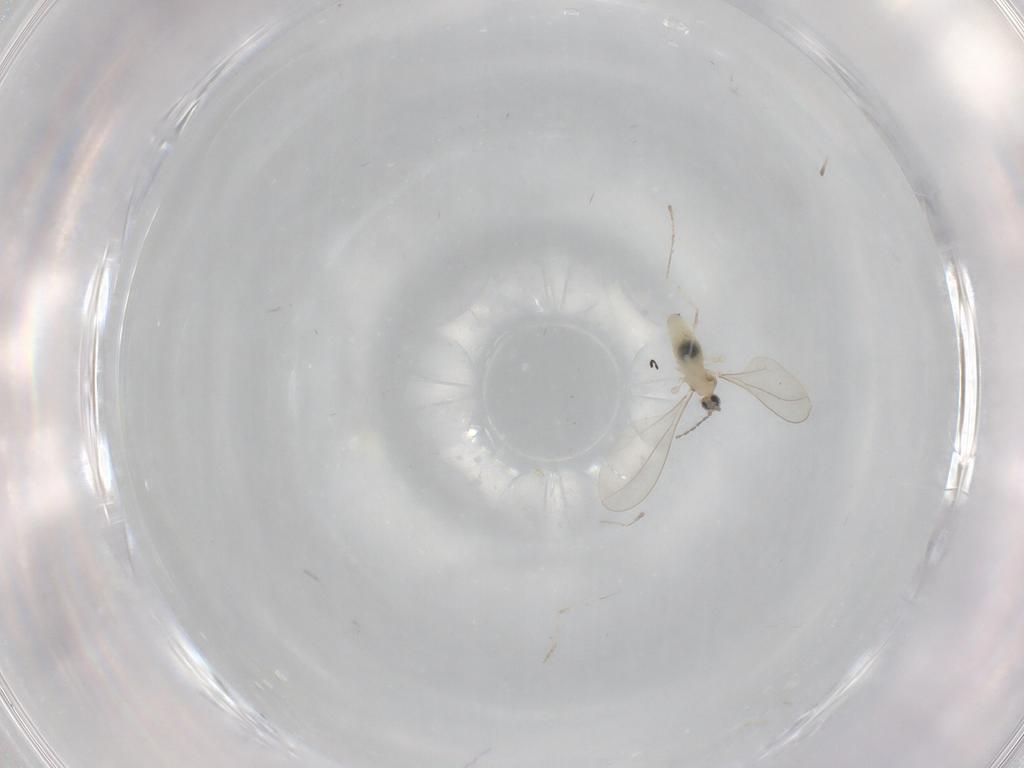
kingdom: Animalia
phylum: Arthropoda
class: Insecta
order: Diptera
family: Cecidomyiidae
